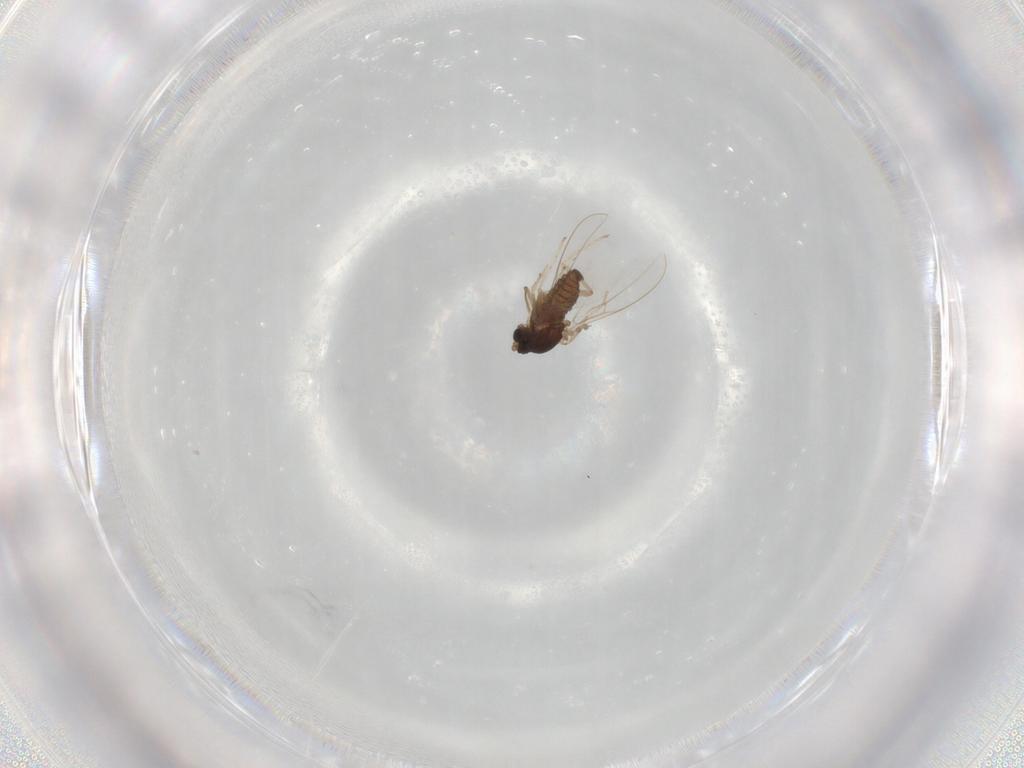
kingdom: Animalia
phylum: Arthropoda
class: Insecta
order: Diptera
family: Cecidomyiidae
